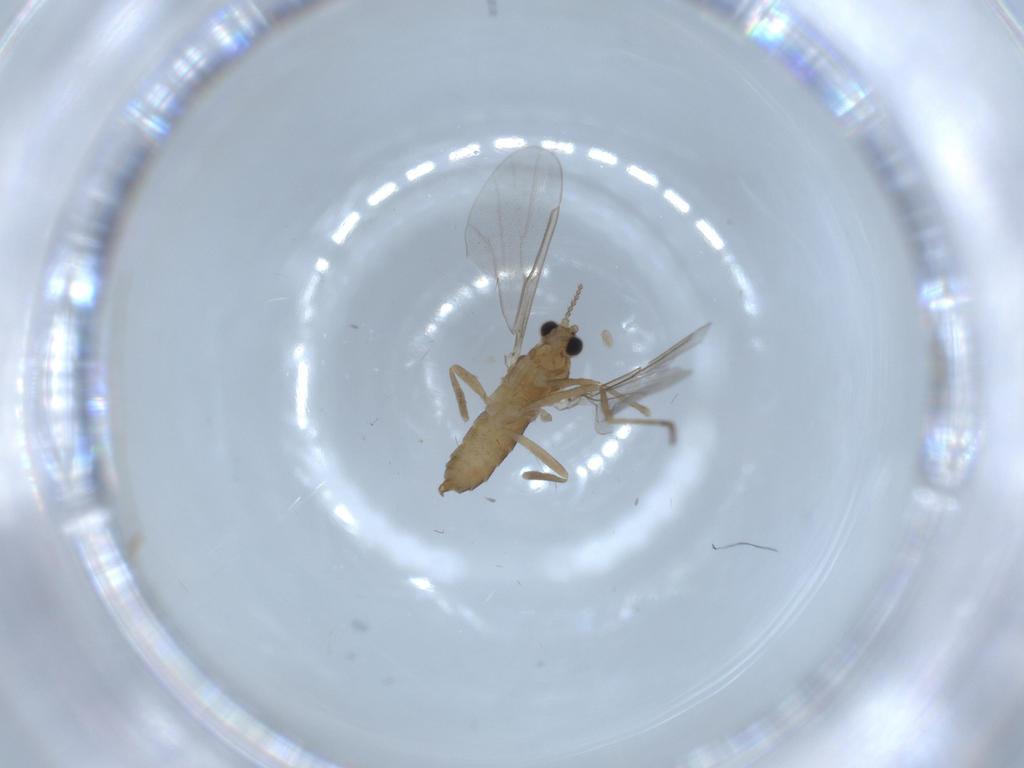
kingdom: Animalia
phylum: Arthropoda
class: Insecta
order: Diptera
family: Cecidomyiidae
